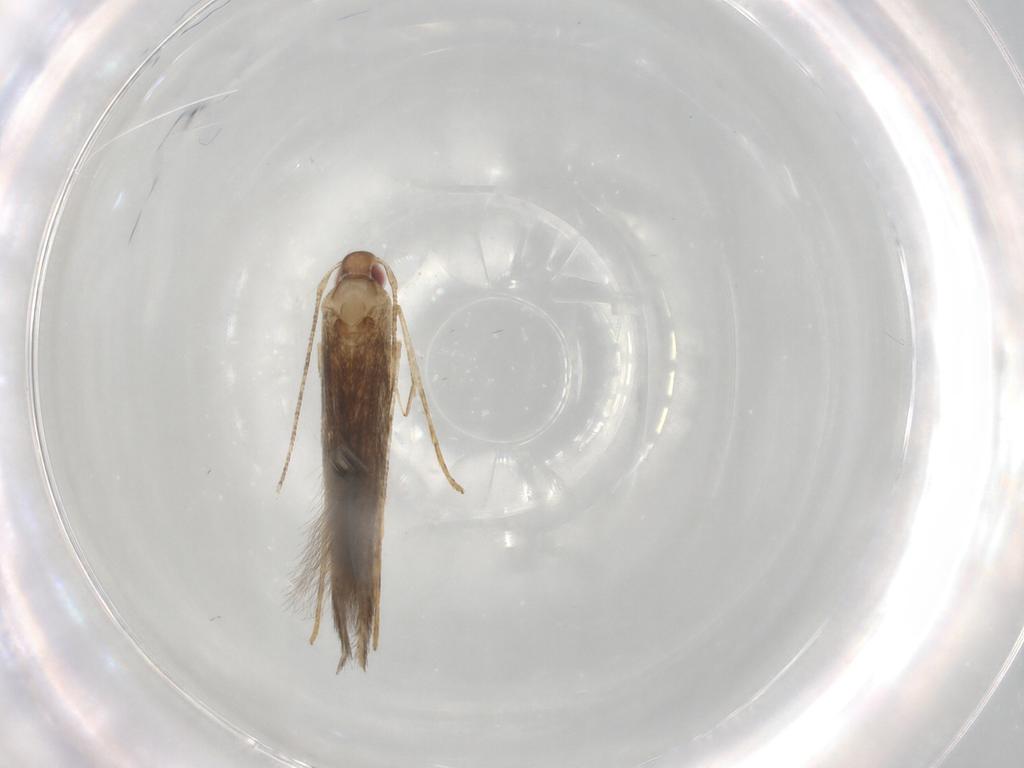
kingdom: Animalia
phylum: Arthropoda
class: Insecta
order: Lepidoptera
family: Cosmopterigidae
